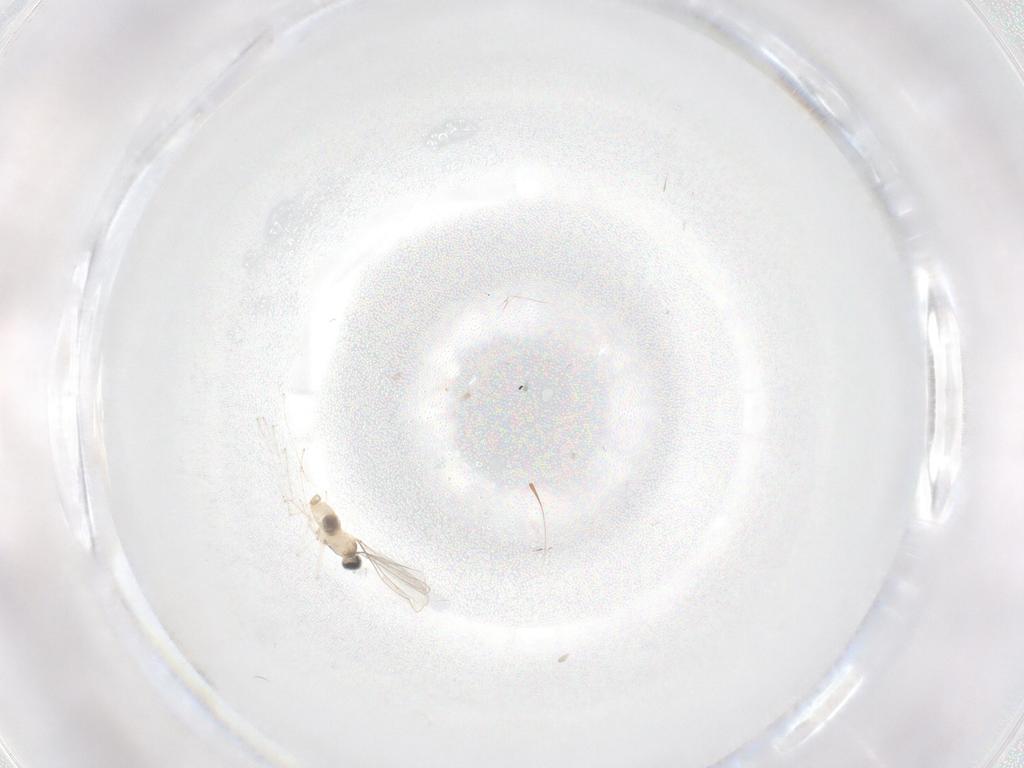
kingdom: Animalia
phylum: Arthropoda
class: Insecta
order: Diptera
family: Cecidomyiidae
